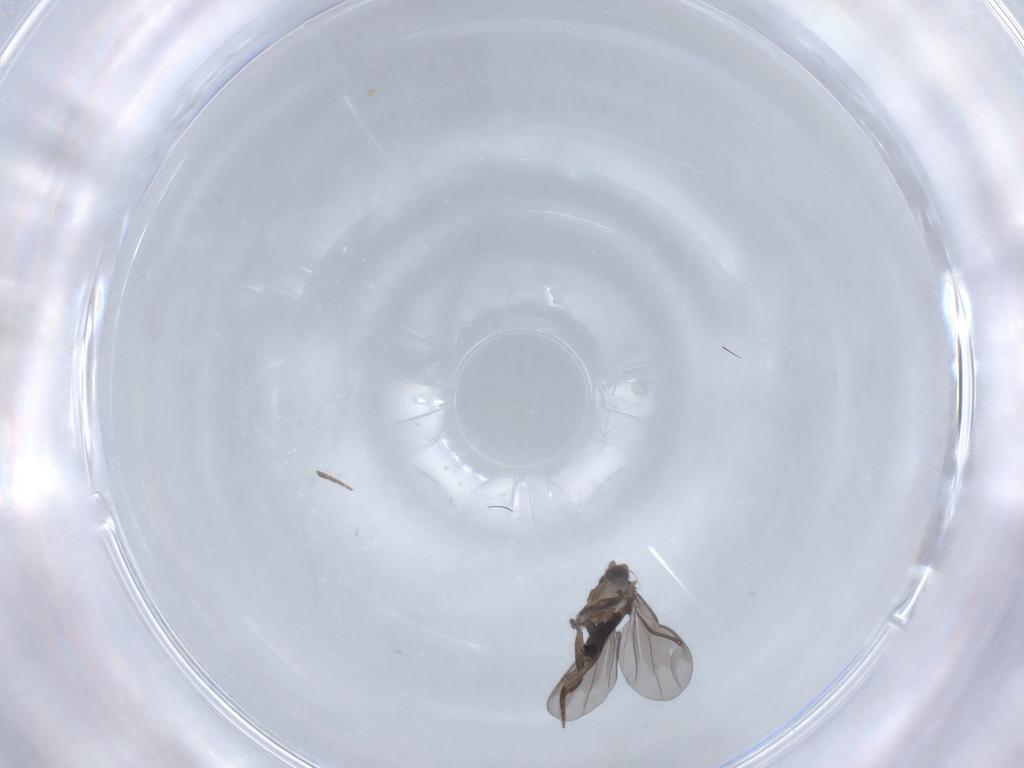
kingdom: Animalia
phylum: Arthropoda
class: Insecta
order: Diptera
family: Phoridae
